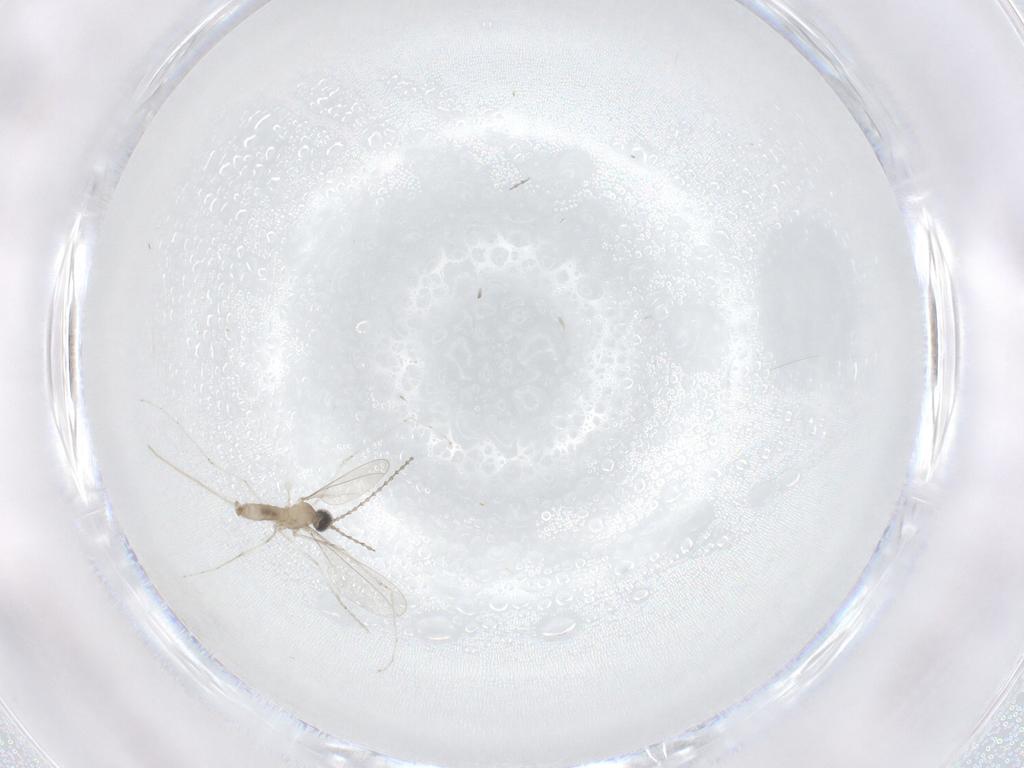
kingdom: Animalia
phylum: Arthropoda
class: Insecta
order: Diptera
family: Cecidomyiidae
